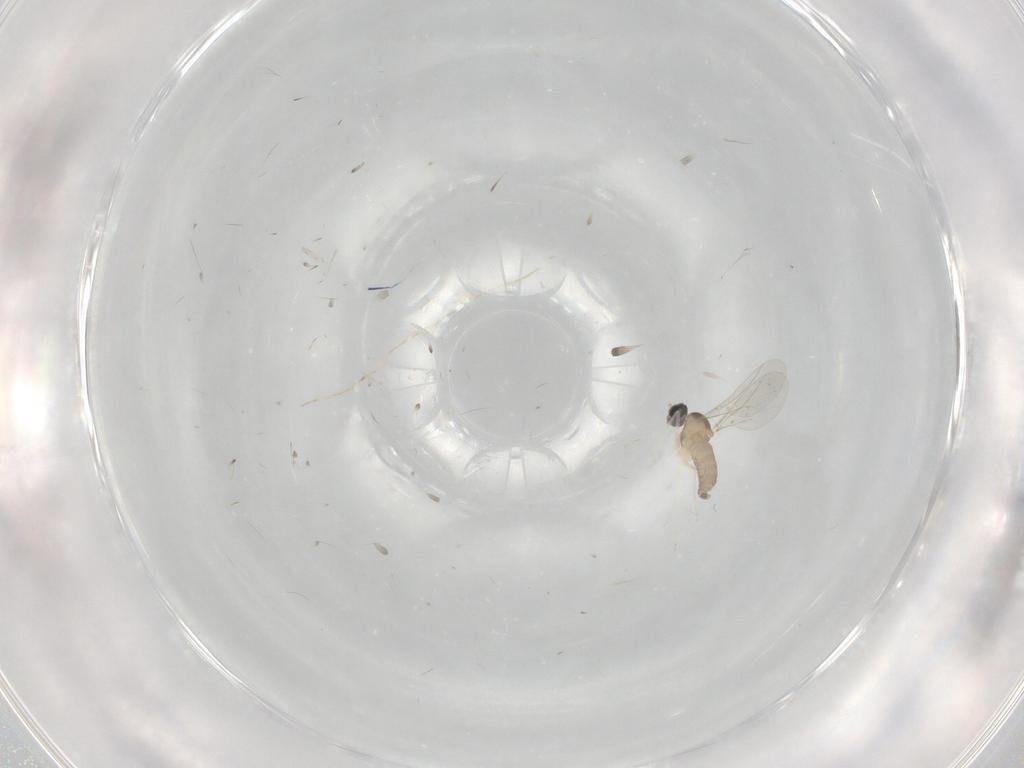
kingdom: Animalia
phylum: Arthropoda
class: Insecta
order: Diptera
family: Cecidomyiidae
